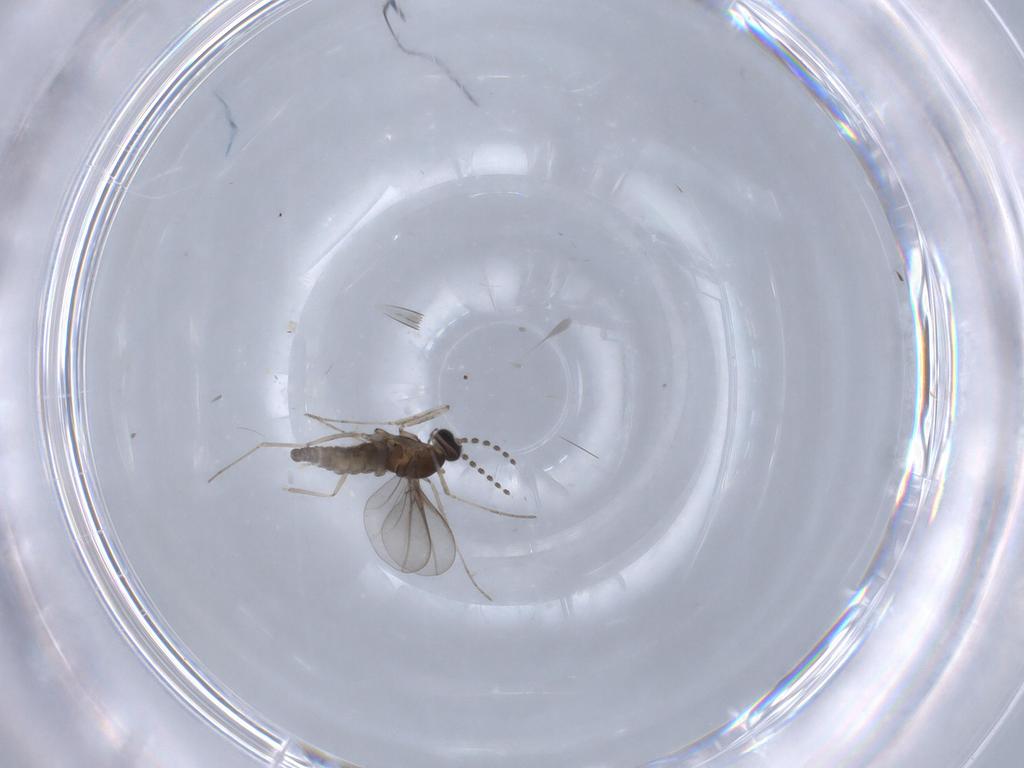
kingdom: Animalia
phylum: Arthropoda
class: Insecta
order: Diptera
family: Cecidomyiidae
